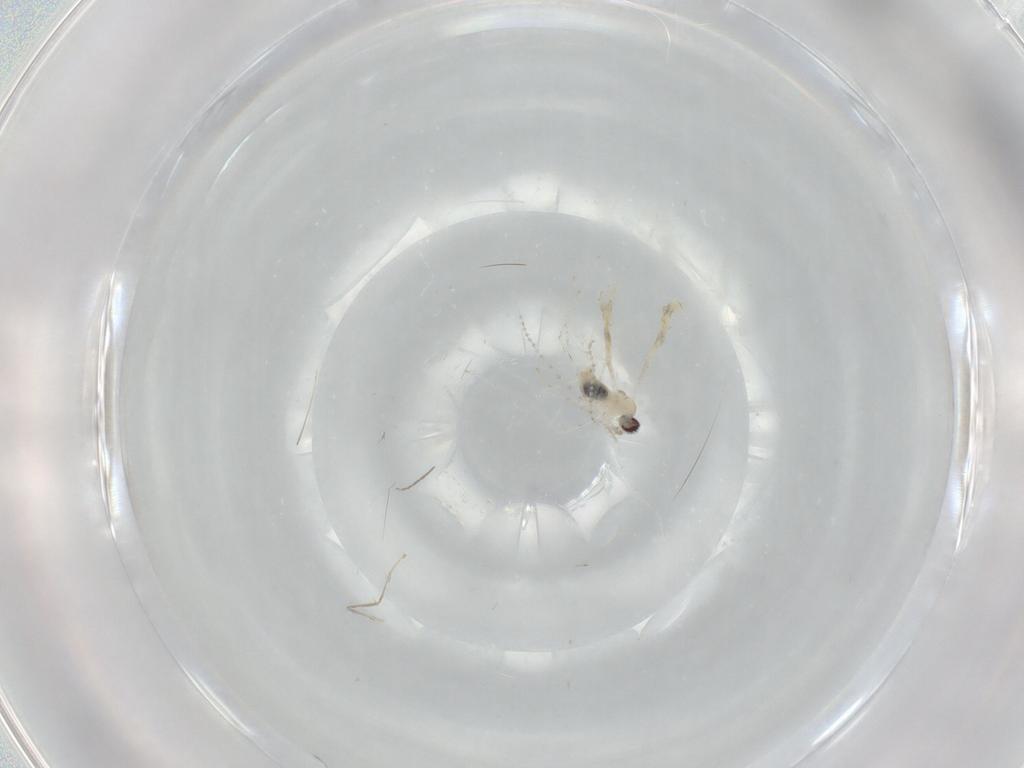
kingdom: Animalia
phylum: Arthropoda
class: Insecta
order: Diptera
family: Cecidomyiidae
